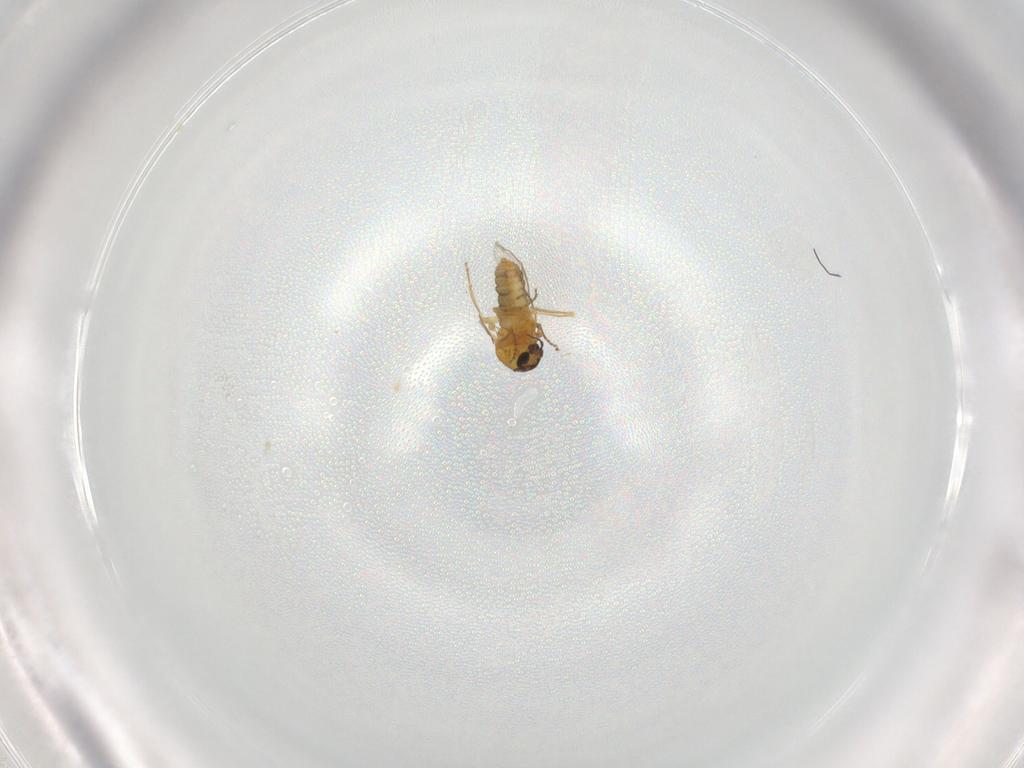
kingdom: Animalia
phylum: Arthropoda
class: Insecta
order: Diptera
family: Cecidomyiidae
